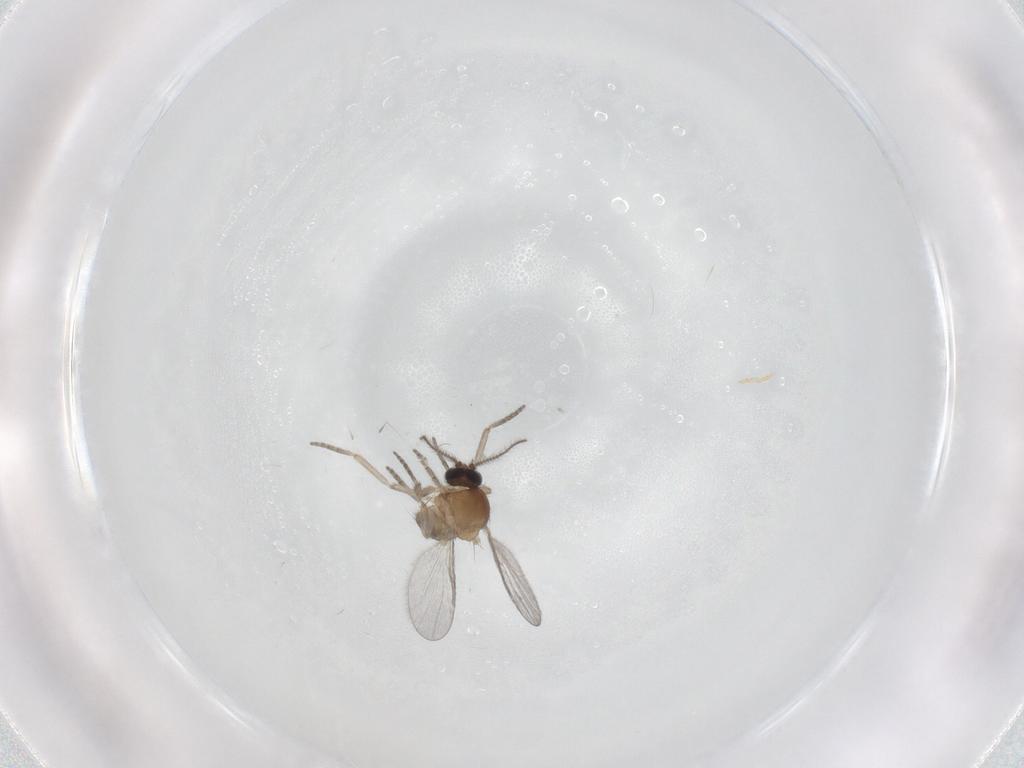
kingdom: Animalia
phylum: Arthropoda
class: Insecta
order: Diptera
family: Ceratopogonidae
